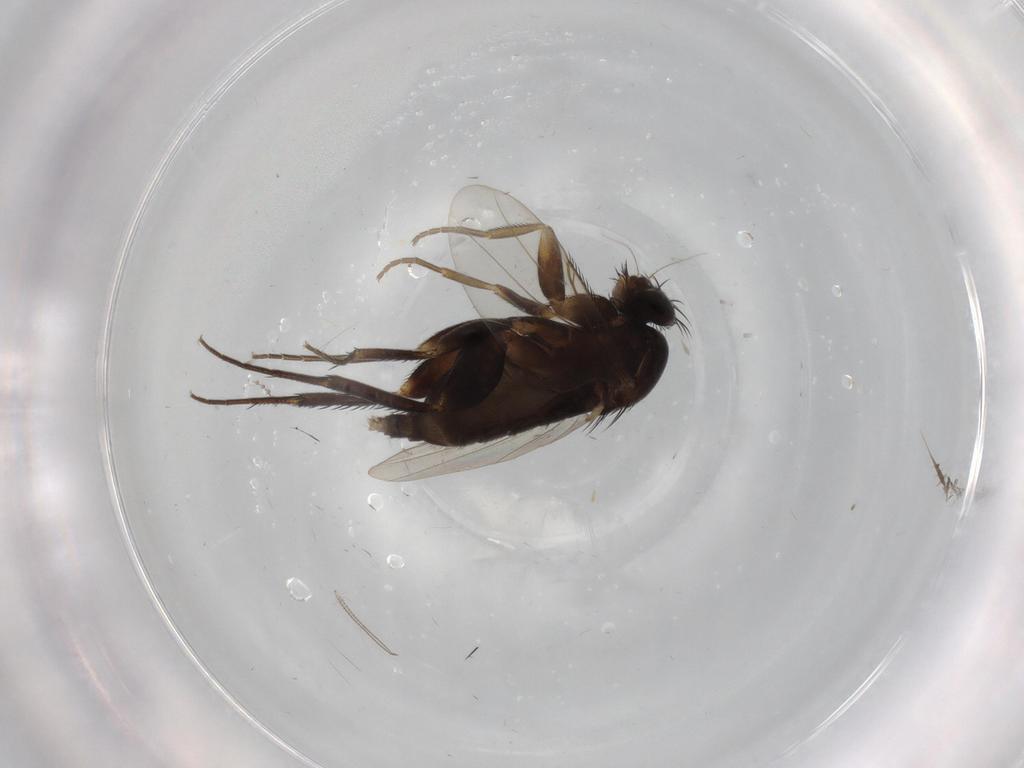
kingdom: Animalia
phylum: Arthropoda
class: Insecta
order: Diptera
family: Phoridae
